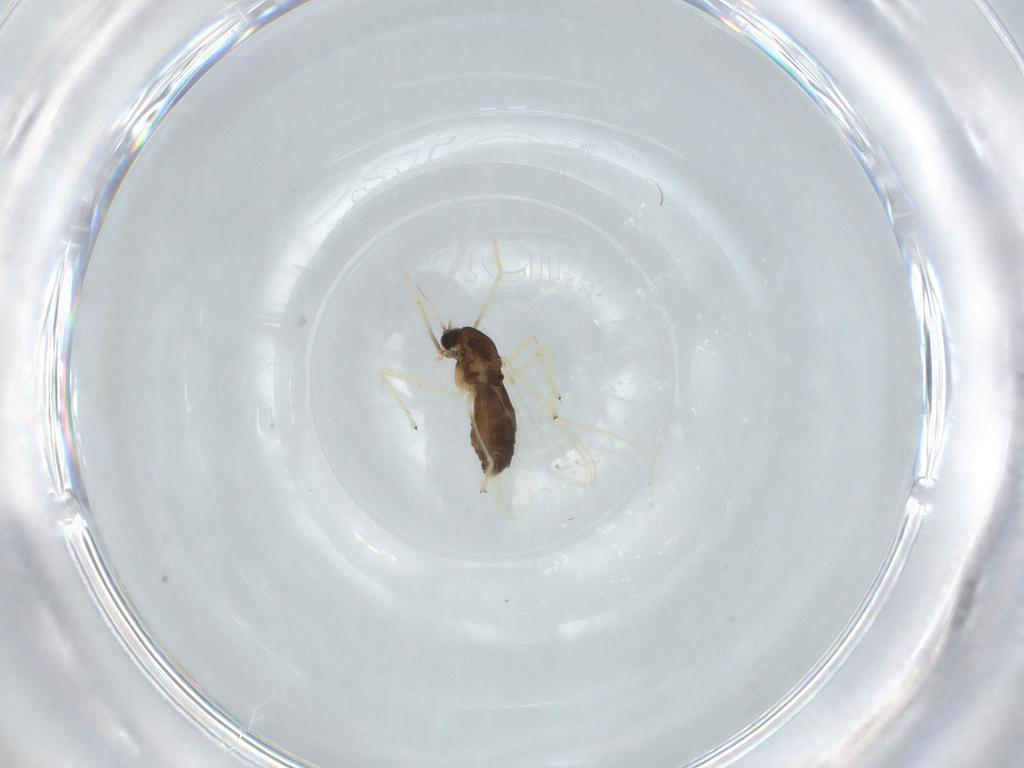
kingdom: Animalia
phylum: Arthropoda
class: Insecta
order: Diptera
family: Chironomidae
